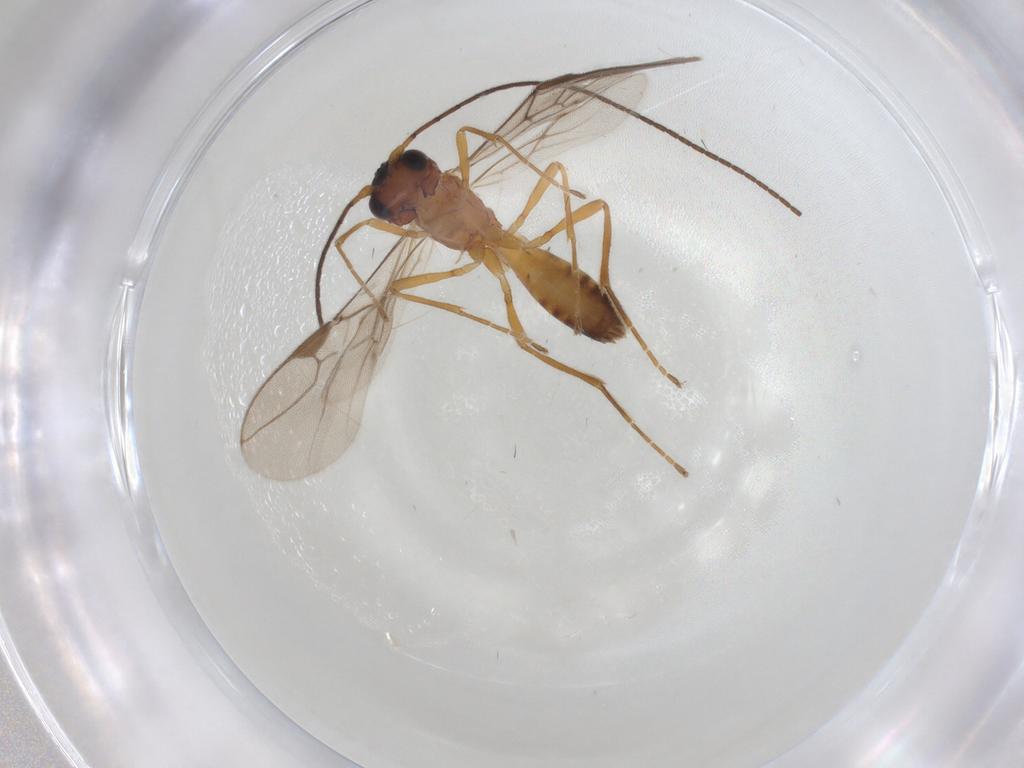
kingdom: Animalia
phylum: Arthropoda
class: Insecta
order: Hymenoptera
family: Braconidae
